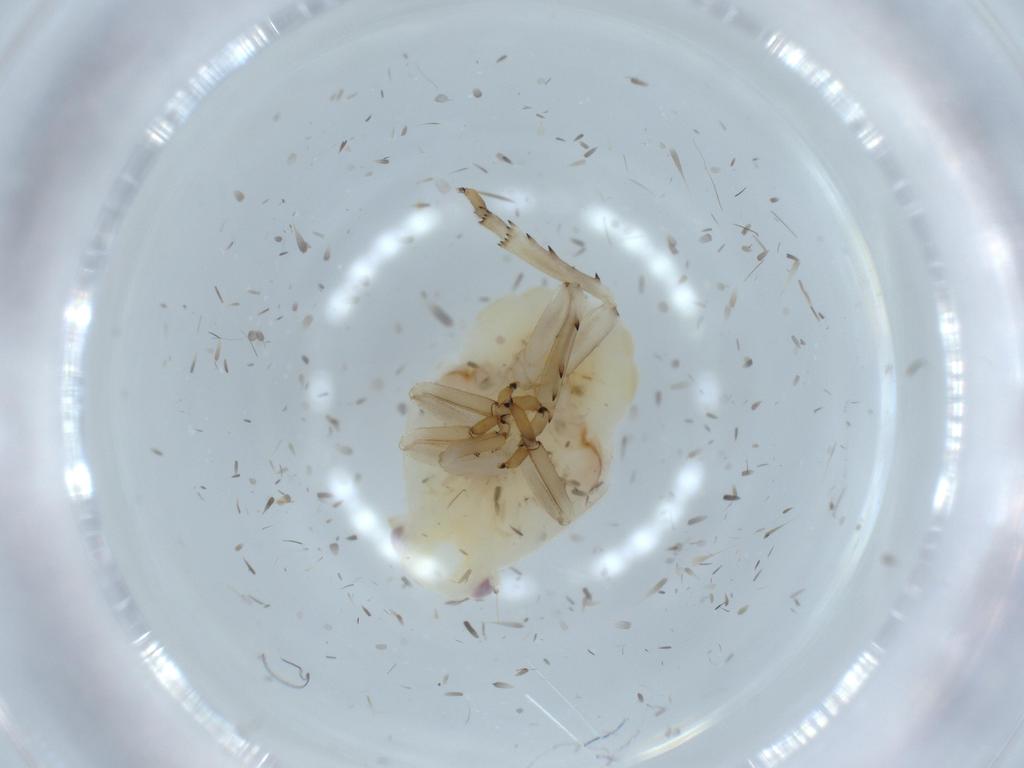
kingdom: Animalia
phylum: Arthropoda
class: Insecta
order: Hemiptera
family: Flatidae
